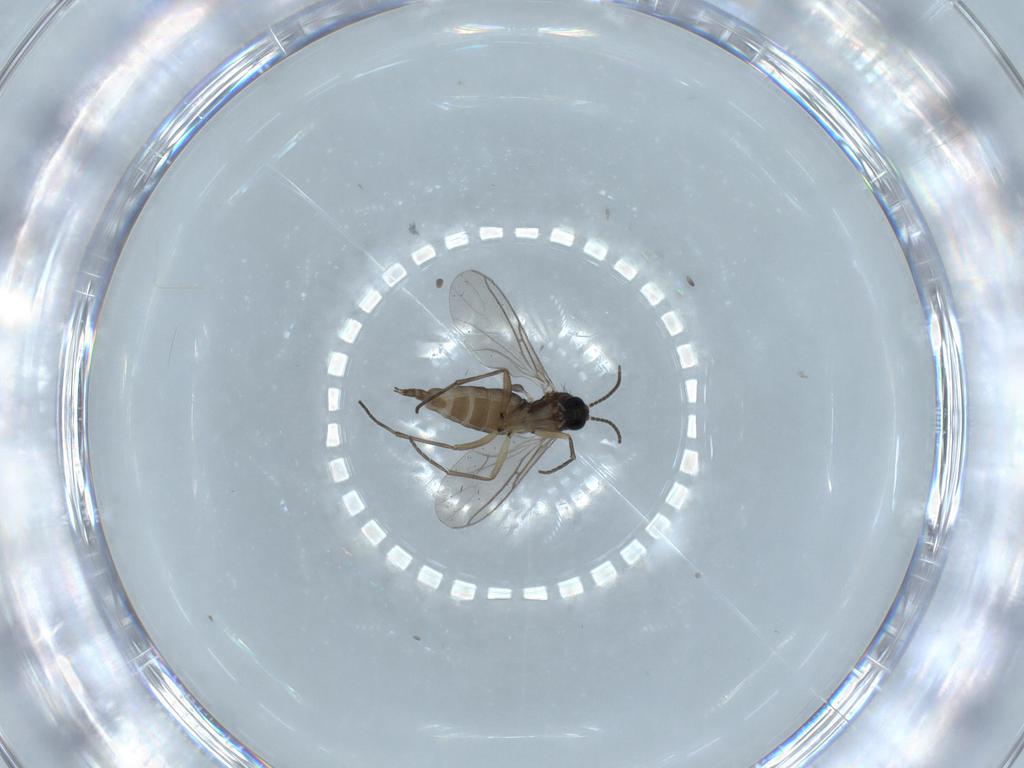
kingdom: Animalia
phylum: Arthropoda
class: Insecta
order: Diptera
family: Sciaridae
